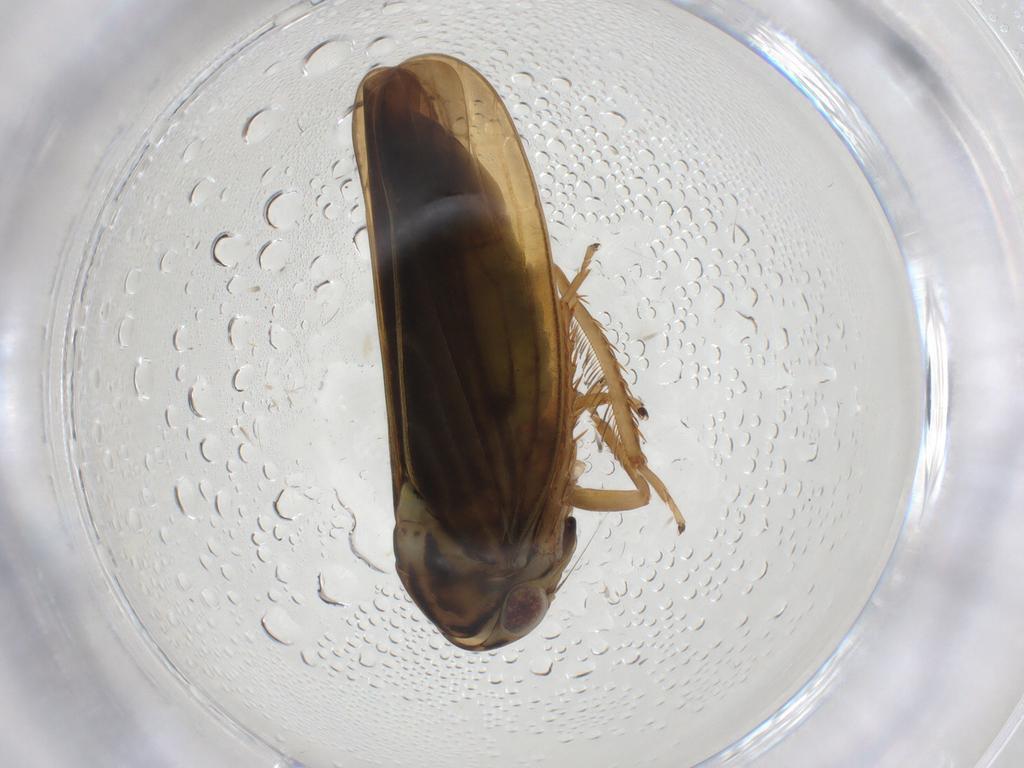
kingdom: Animalia
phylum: Arthropoda
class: Insecta
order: Hemiptera
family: Cicadellidae
